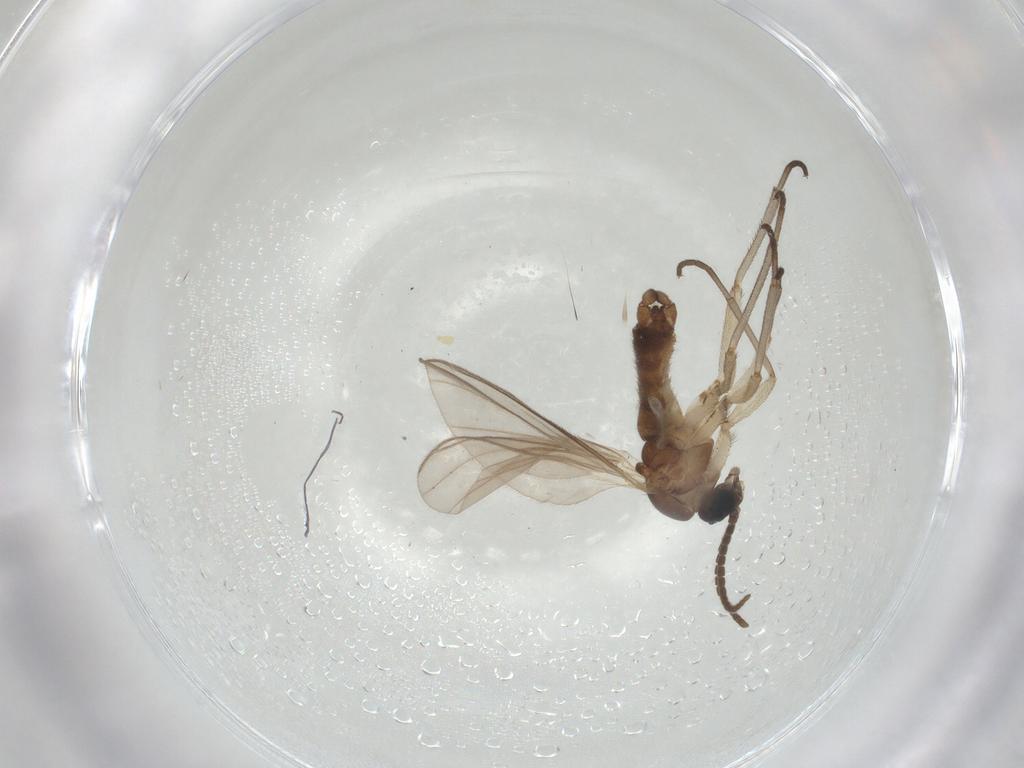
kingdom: Animalia
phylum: Arthropoda
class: Insecta
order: Diptera
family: Sciaridae
